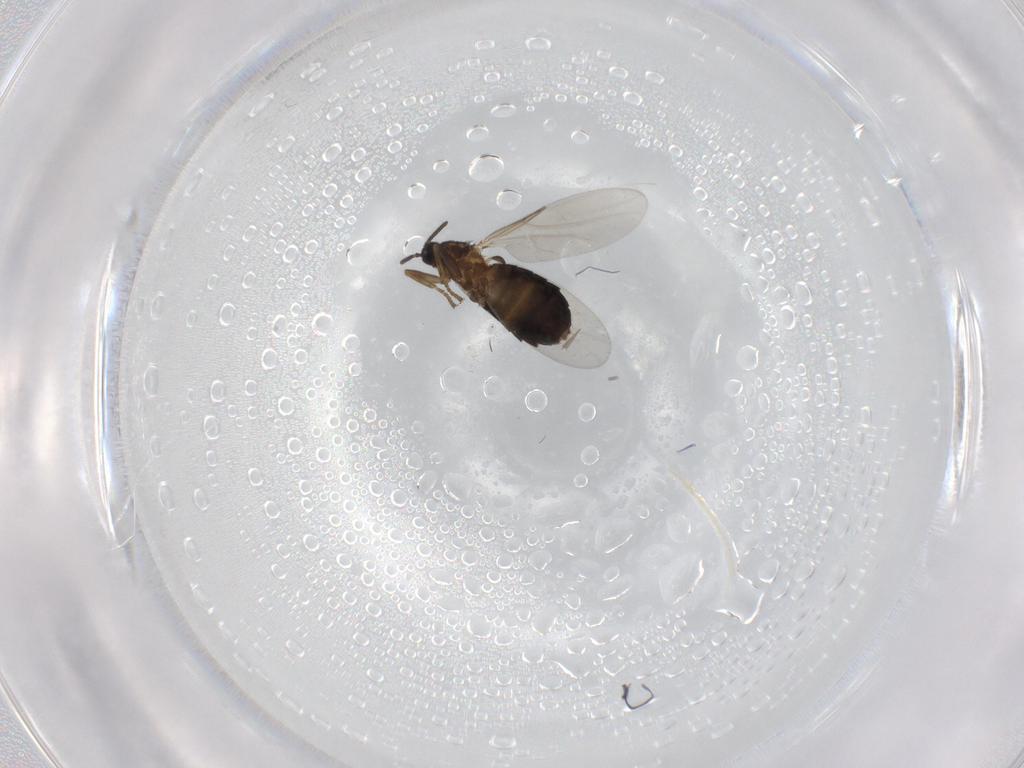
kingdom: Animalia
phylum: Arthropoda
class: Insecta
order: Diptera
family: Scatopsidae
